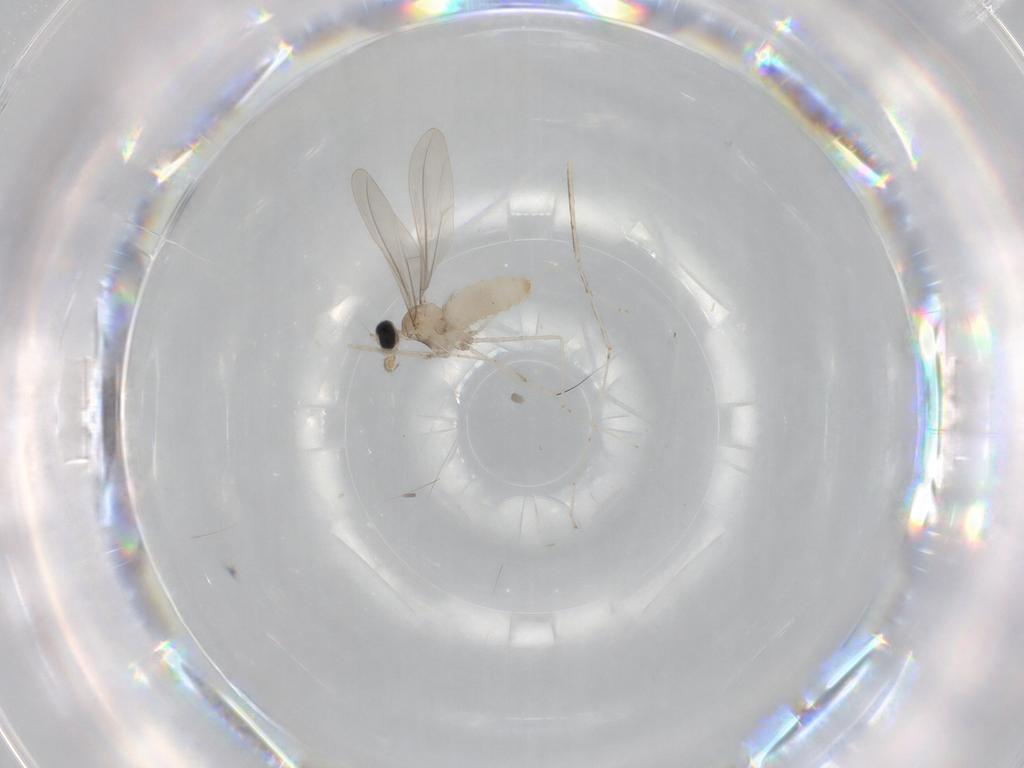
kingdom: Animalia
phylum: Arthropoda
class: Insecta
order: Diptera
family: Cecidomyiidae
